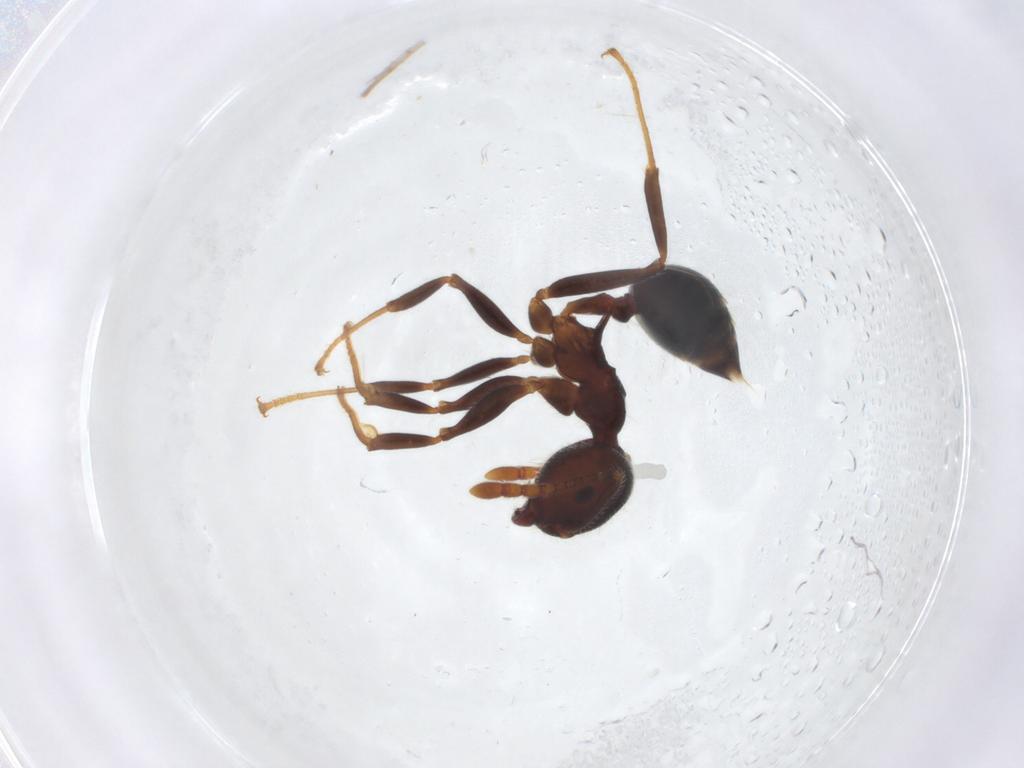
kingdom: Animalia
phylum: Arthropoda
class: Insecta
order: Hymenoptera
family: Formicidae
